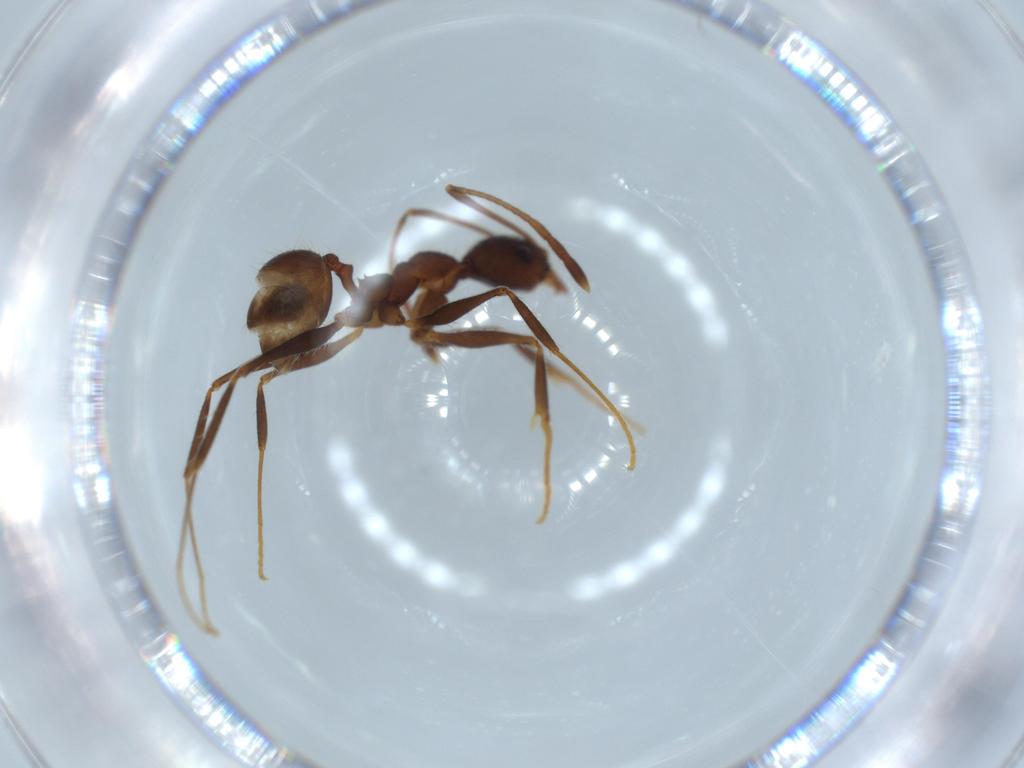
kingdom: Animalia
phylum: Arthropoda
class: Insecta
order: Hymenoptera
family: Formicidae
